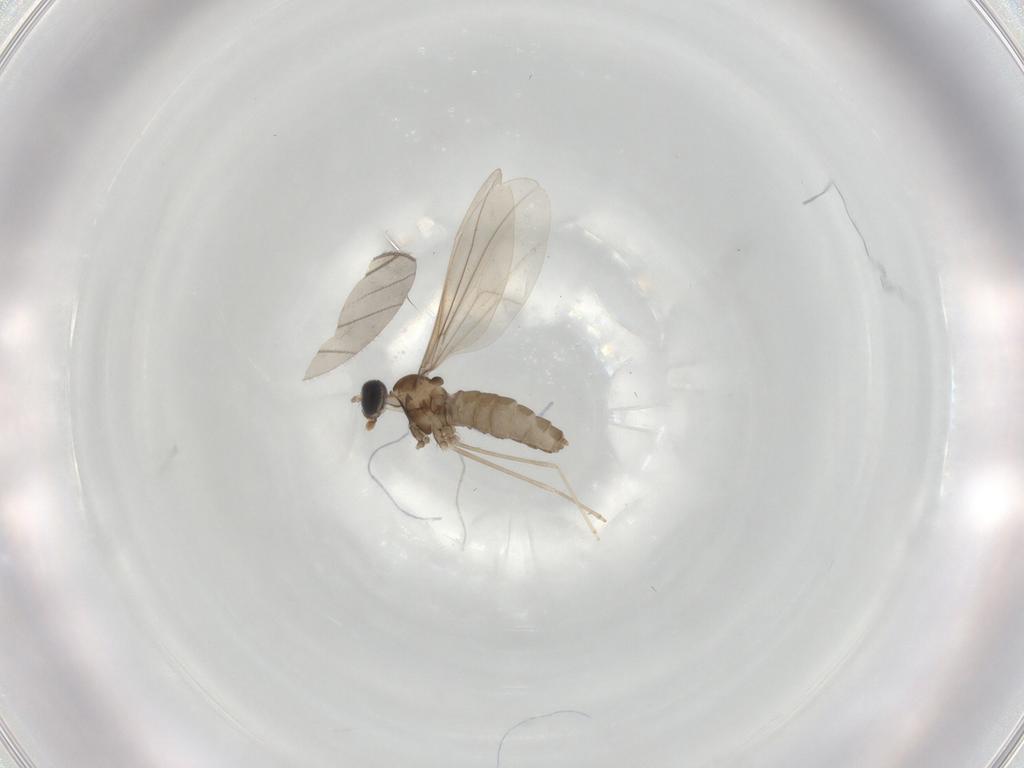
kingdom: Animalia
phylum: Arthropoda
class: Insecta
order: Diptera
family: Cecidomyiidae
